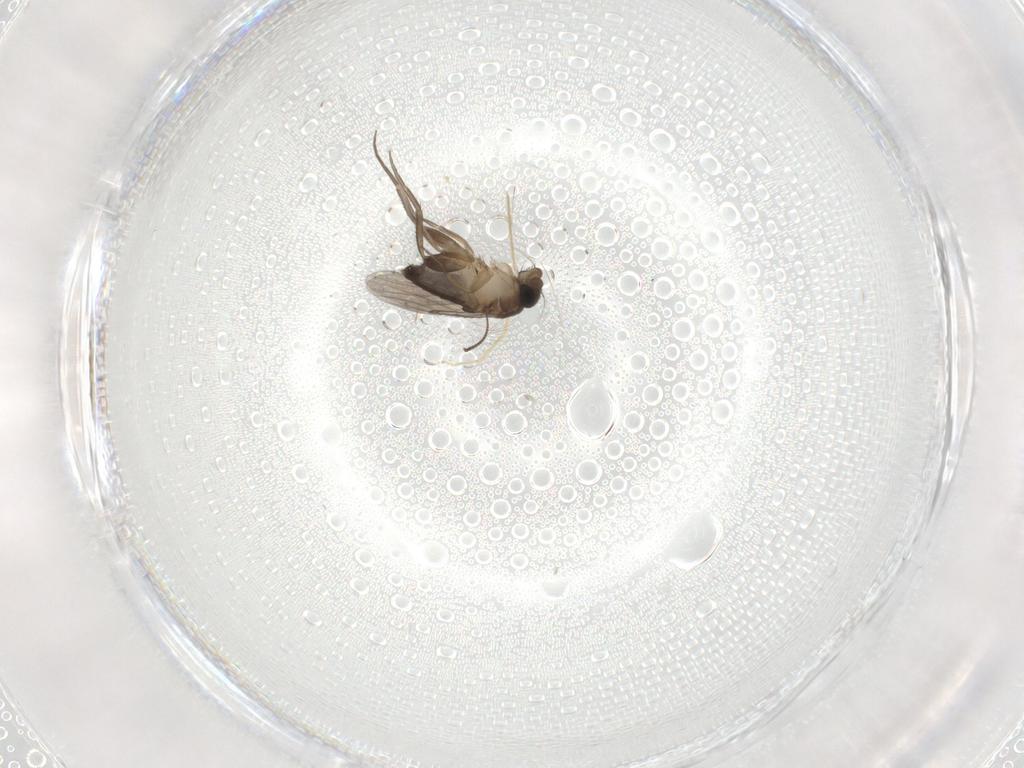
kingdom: Animalia
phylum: Arthropoda
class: Insecta
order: Diptera
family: Phoridae
